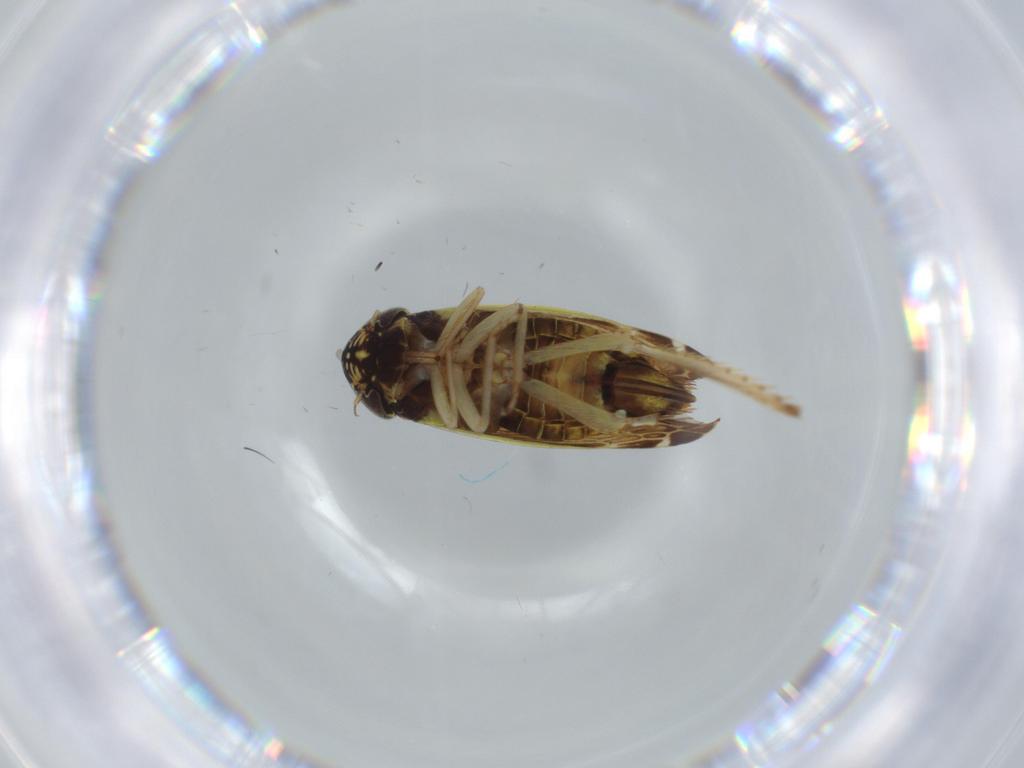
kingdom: Animalia
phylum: Arthropoda
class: Insecta
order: Hemiptera
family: Cicadellidae
